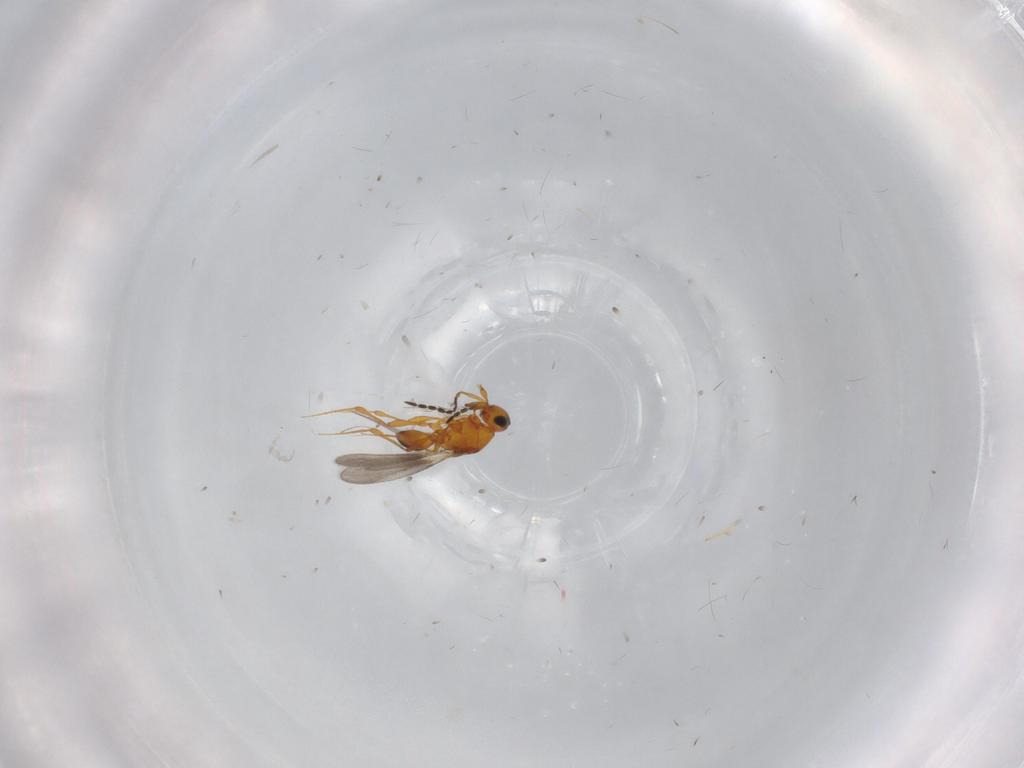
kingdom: Animalia
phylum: Arthropoda
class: Insecta
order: Hymenoptera
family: Platygastridae
